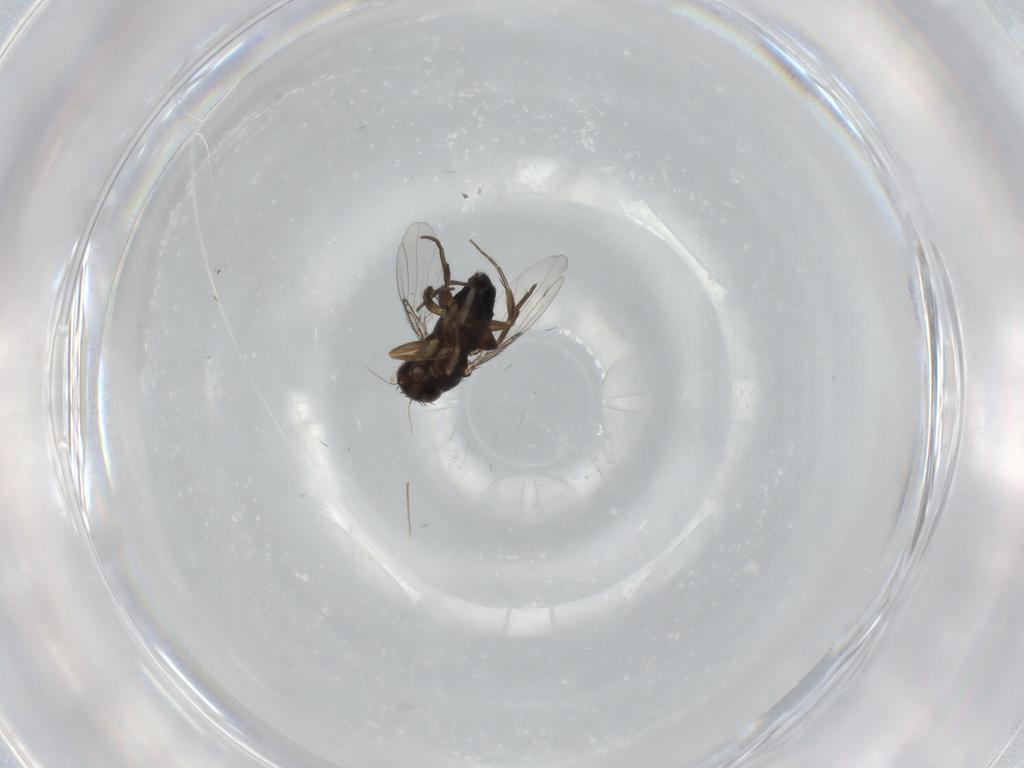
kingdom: Animalia
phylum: Arthropoda
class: Insecta
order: Diptera
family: Phoridae
